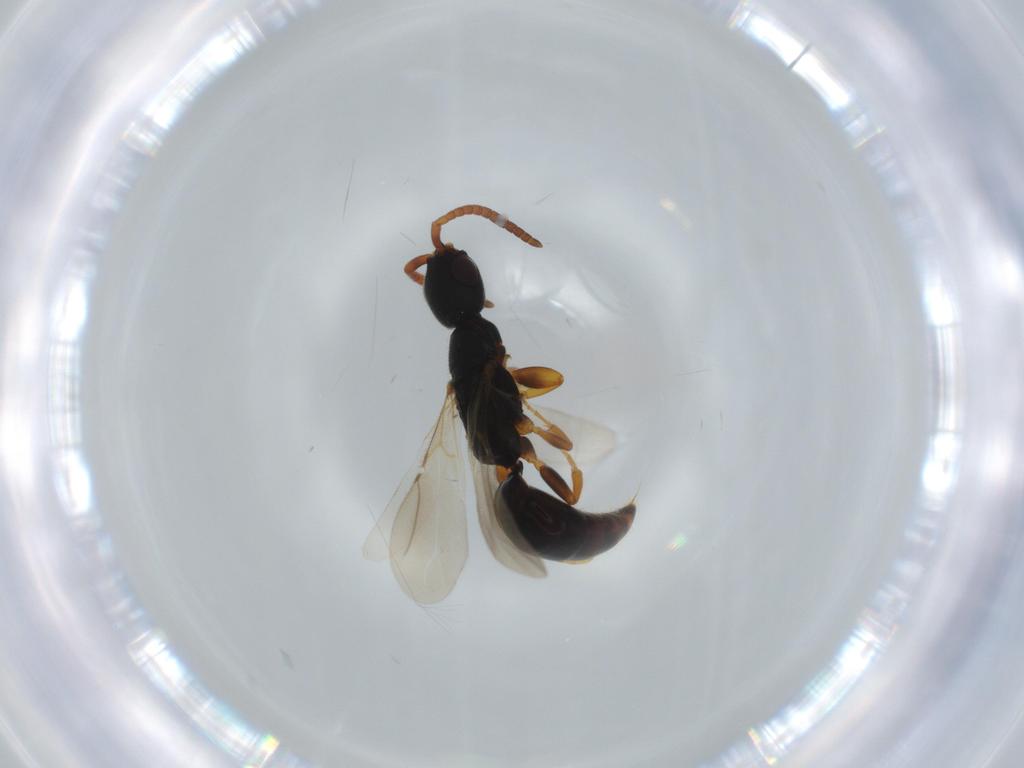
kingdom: Animalia
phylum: Arthropoda
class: Insecta
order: Hymenoptera
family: Bethylidae
